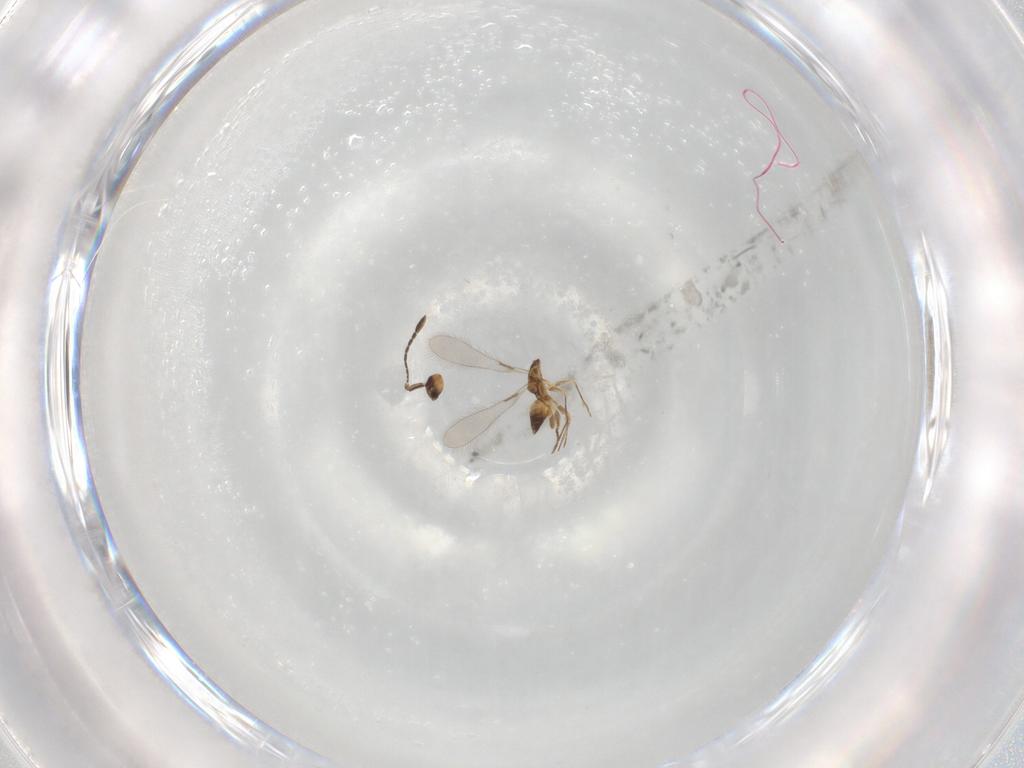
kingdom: Animalia
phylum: Arthropoda
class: Insecta
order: Hymenoptera
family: Mymaridae
